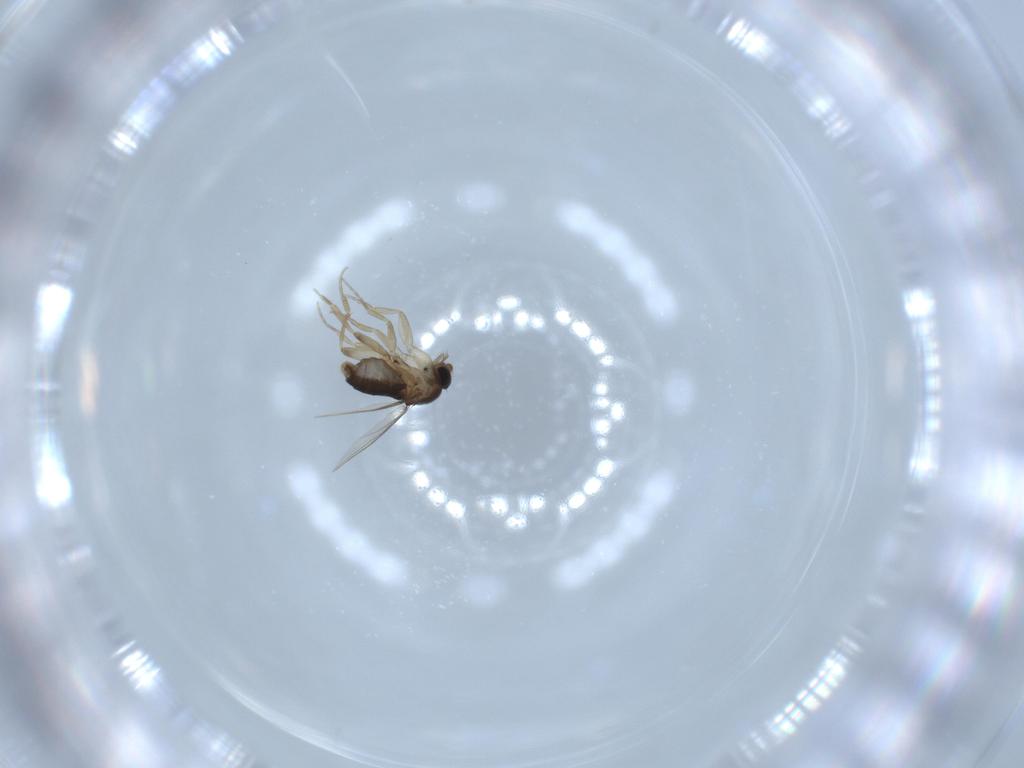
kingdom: Animalia
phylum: Arthropoda
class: Insecta
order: Diptera
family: Phoridae
